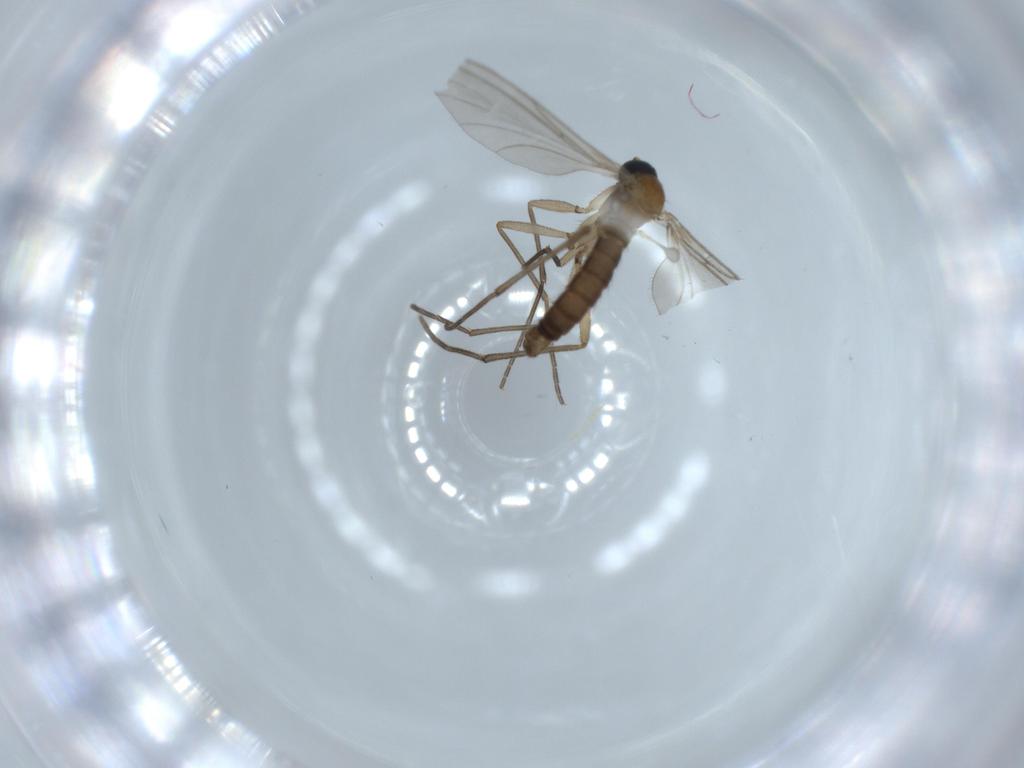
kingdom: Animalia
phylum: Arthropoda
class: Insecta
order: Diptera
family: Sciaridae
